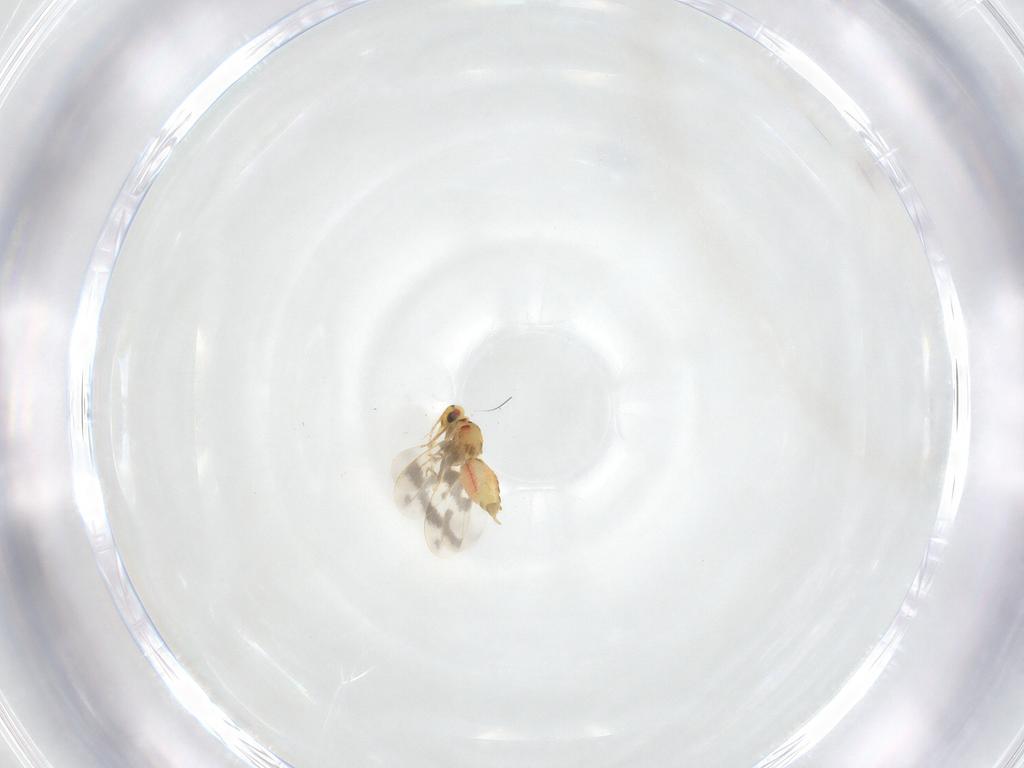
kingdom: Animalia
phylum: Arthropoda
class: Insecta
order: Hemiptera
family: Aleyrodidae
